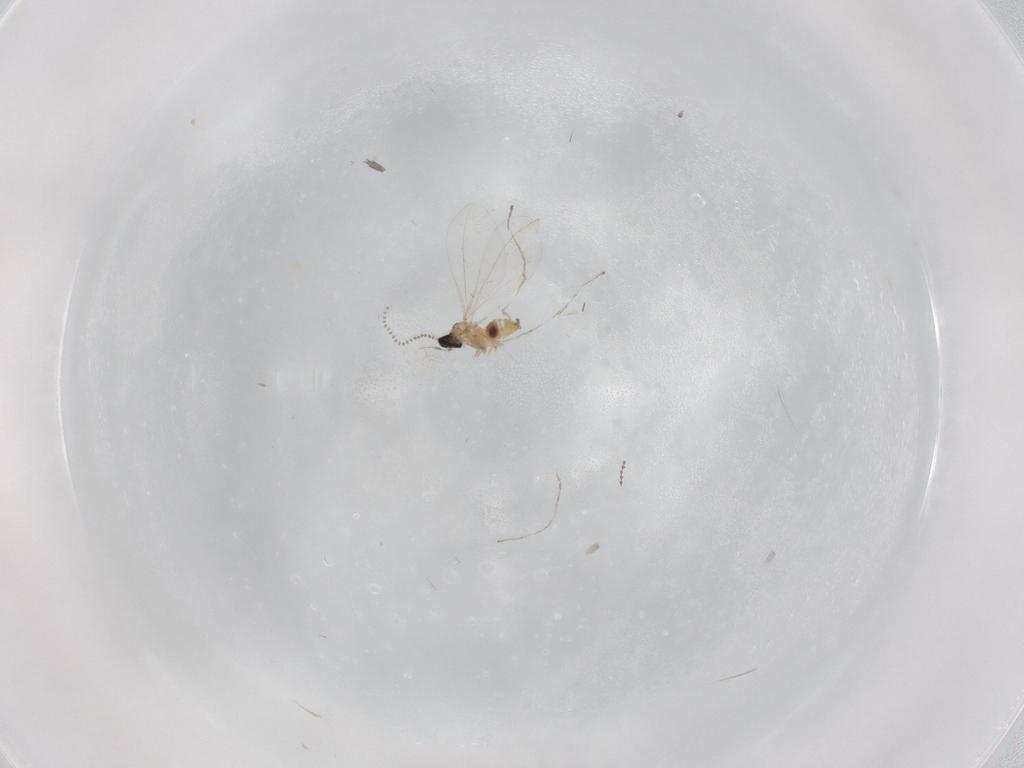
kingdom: Animalia
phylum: Arthropoda
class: Insecta
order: Diptera
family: Cecidomyiidae
